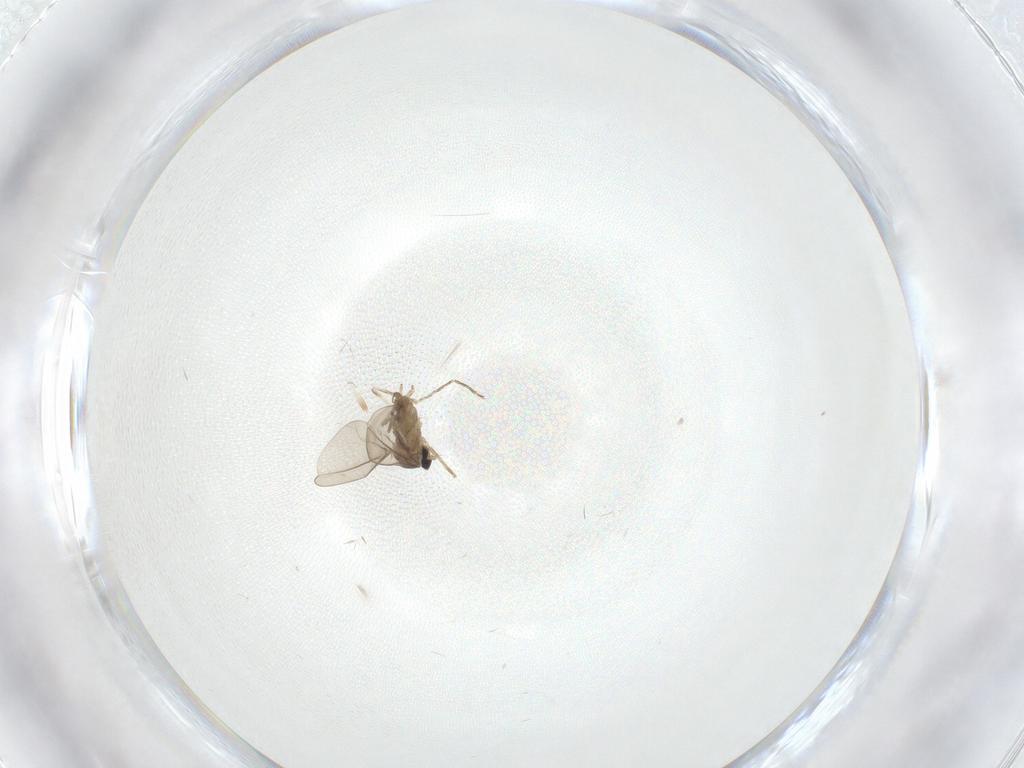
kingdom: Animalia
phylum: Arthropoda
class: Insecta
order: Diptera
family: Cecidomyiidae
